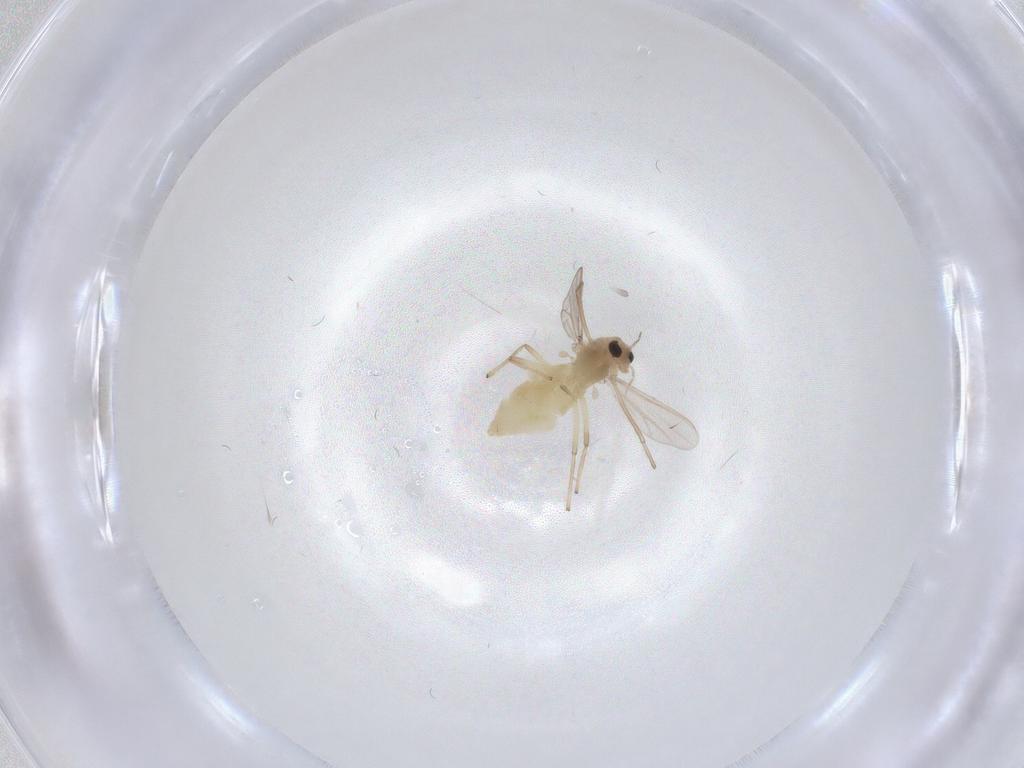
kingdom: Animalia
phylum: Arthropoda
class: Insecta
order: Diptera
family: Chironomidae
